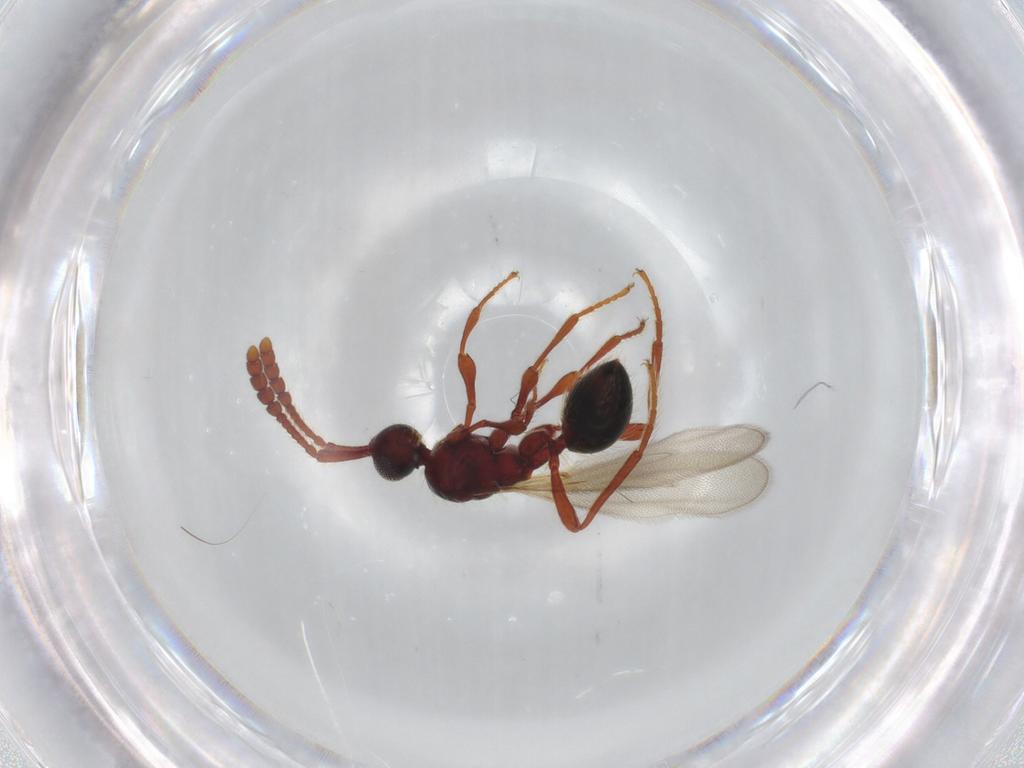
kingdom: Animalia
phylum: Arthropoda
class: Insecta
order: Hymenoptera
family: Diapriidae
